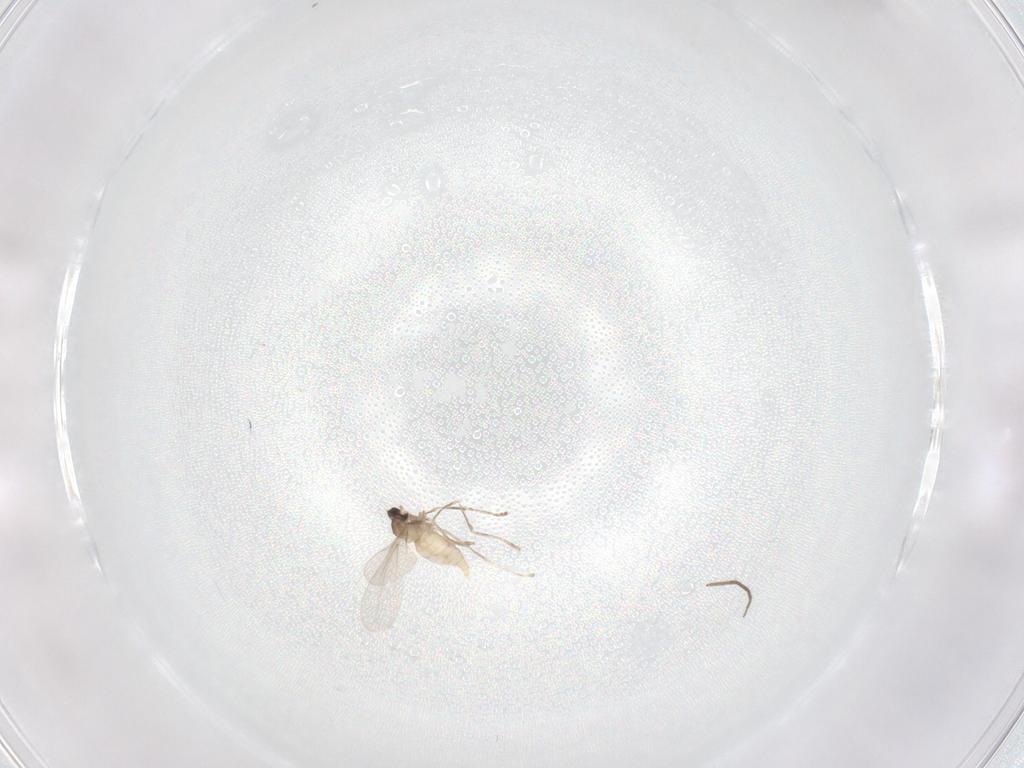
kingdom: Animalia
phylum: Arthropoda
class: Insecta
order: Diptera
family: Cecidomyiidae
